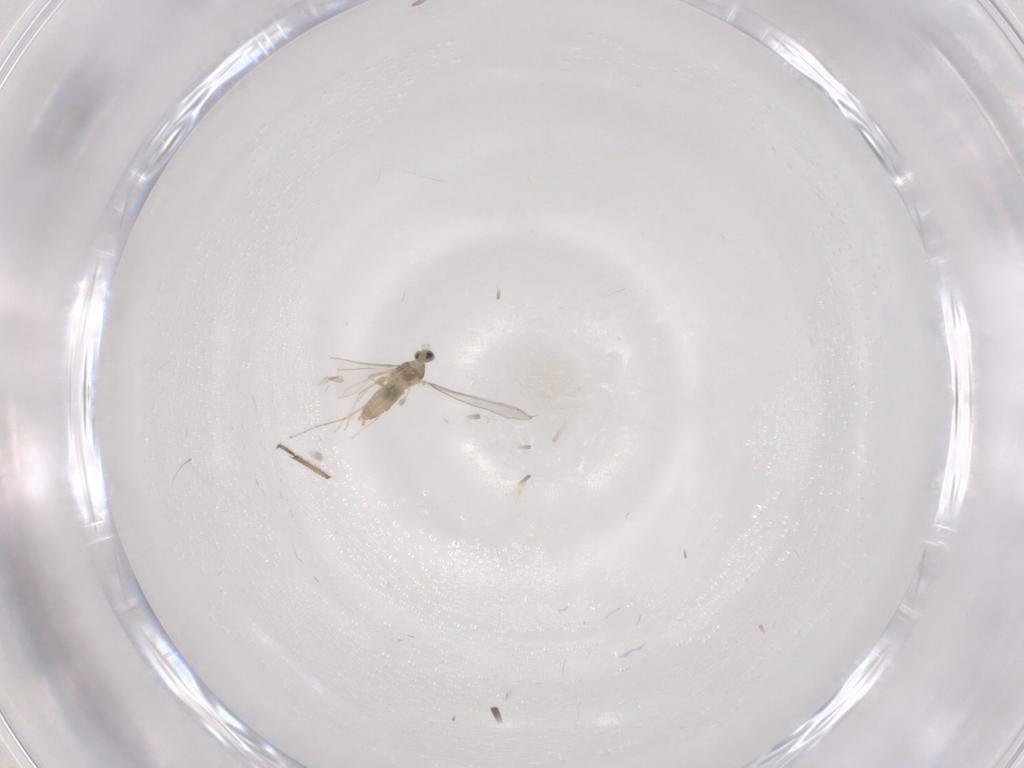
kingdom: Animalia
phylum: Arthropoda
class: Insecta
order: Diptera
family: Cecidomyiidae
